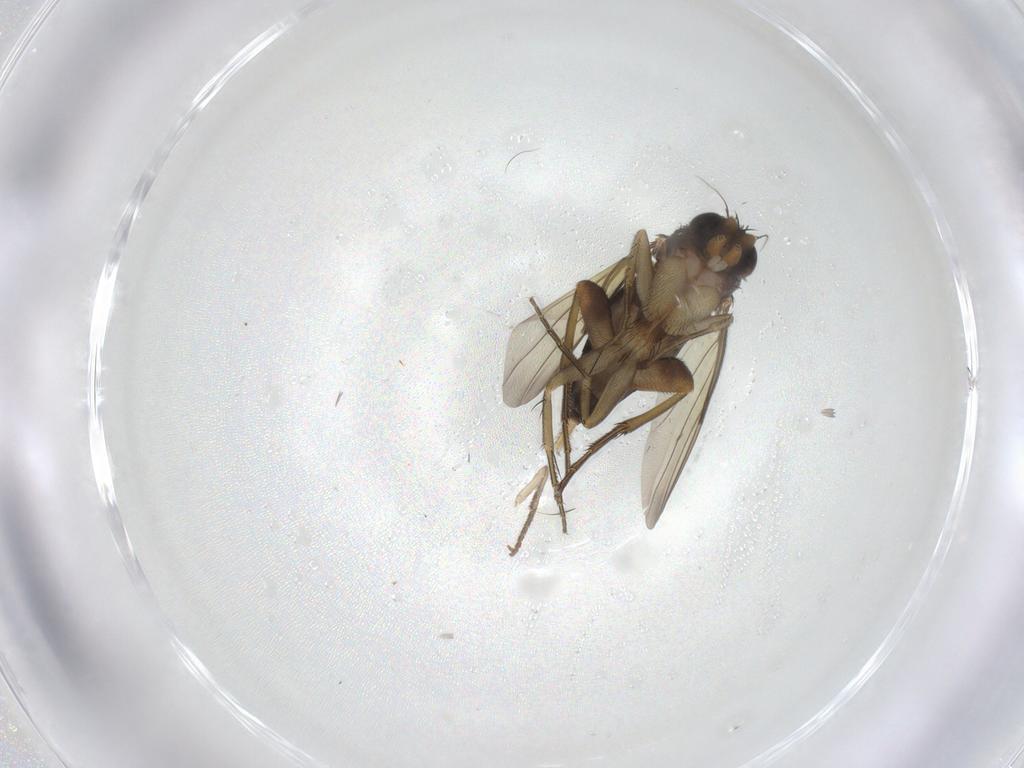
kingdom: Animalia
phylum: Arthropoda
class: Insecta
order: Diptera
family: Phoridae
